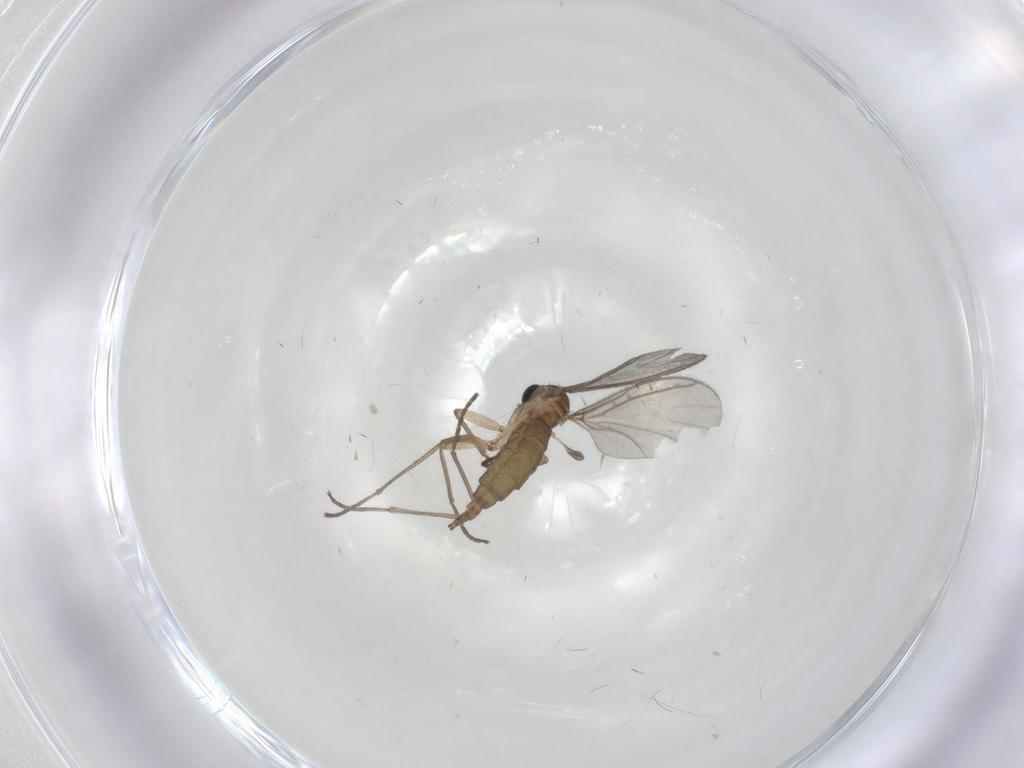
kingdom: Animalia
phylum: Arthropoda
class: Insecta
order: Diptera
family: Sciaridae
